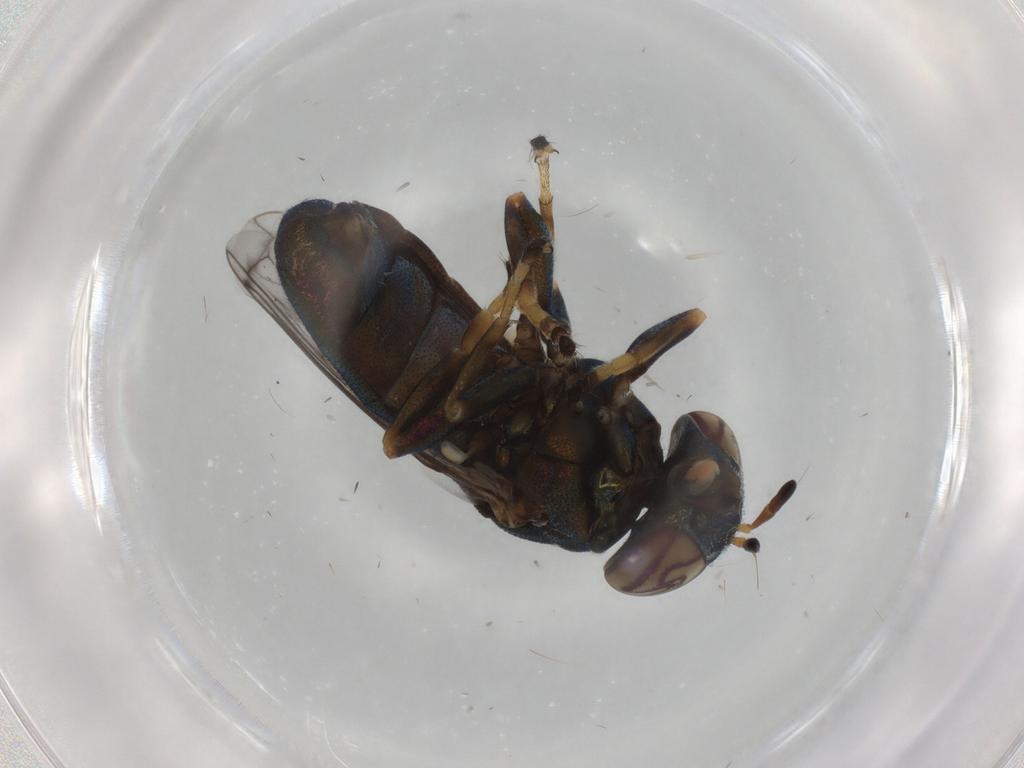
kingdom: Animalia
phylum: Arthropoda
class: Insecta
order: Diptera
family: Syrphidae
